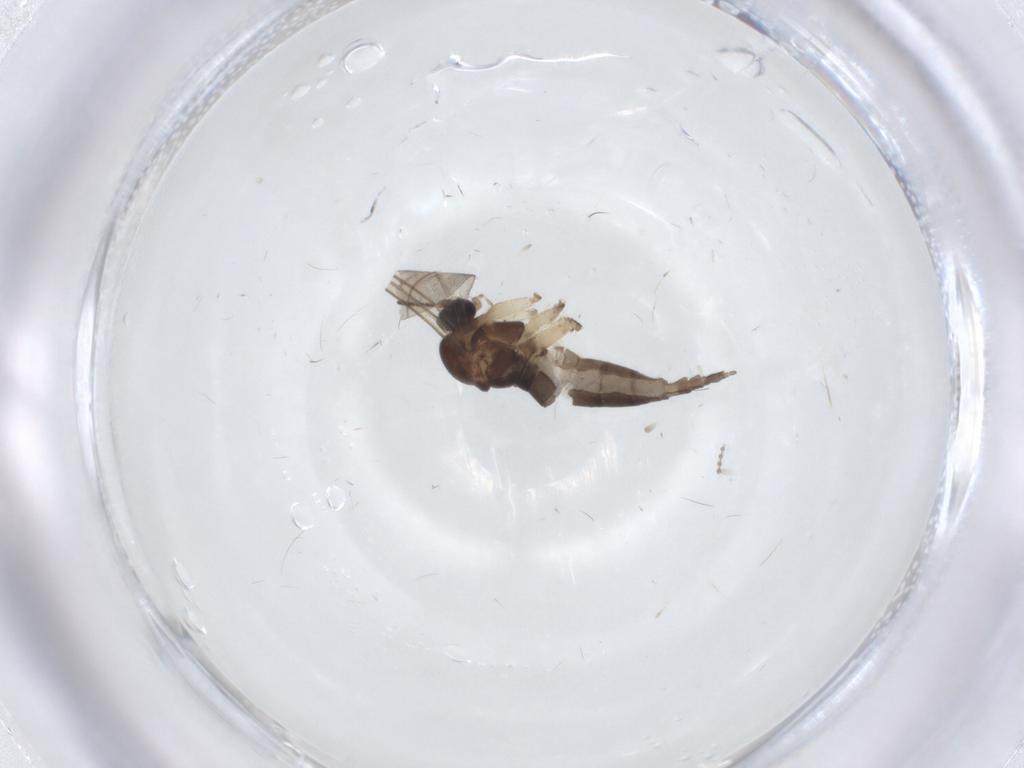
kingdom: Animalia
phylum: Arthropoda
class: Insecta
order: Diptera
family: Sciaridae
